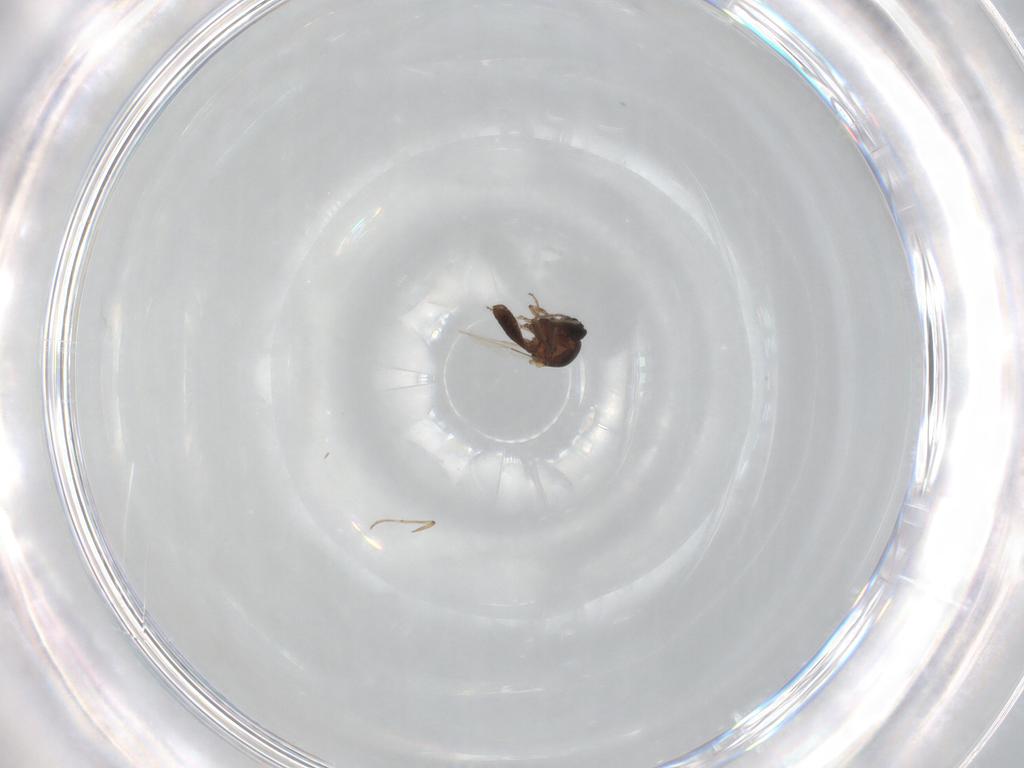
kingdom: Animalia
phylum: Arthropoda
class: Insecta
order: Diptera
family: Ceratopogonidae
